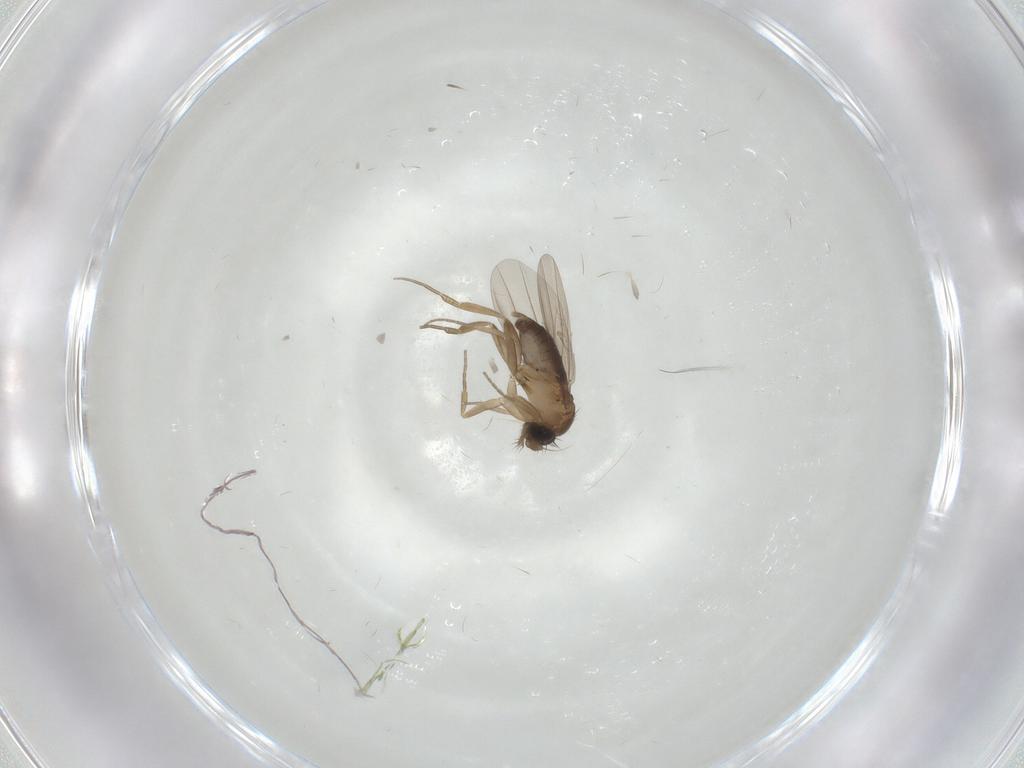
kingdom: Animalia
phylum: Arthropoda
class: Insecta
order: Diptera
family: Phoridae
